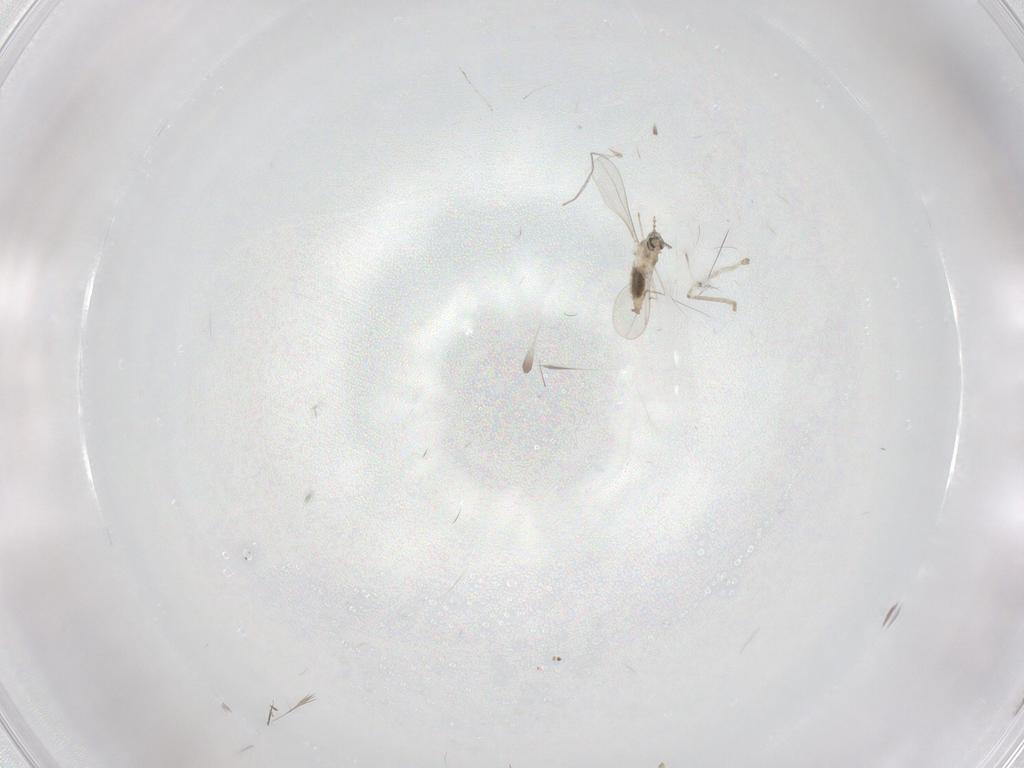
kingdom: Animalia
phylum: Arthropoda
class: Insecta
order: Diptera
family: Cecidomyiidae
